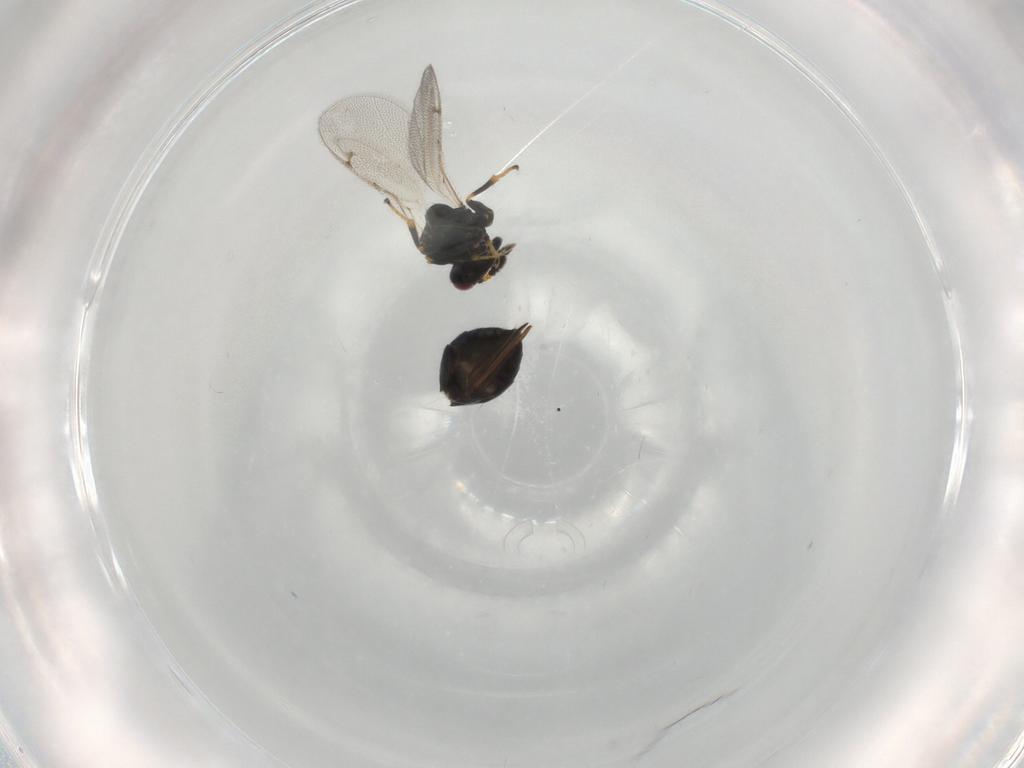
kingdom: Animalia
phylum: Arthropoda
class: Insecta
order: Hymenoptera
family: Pteromalidae
